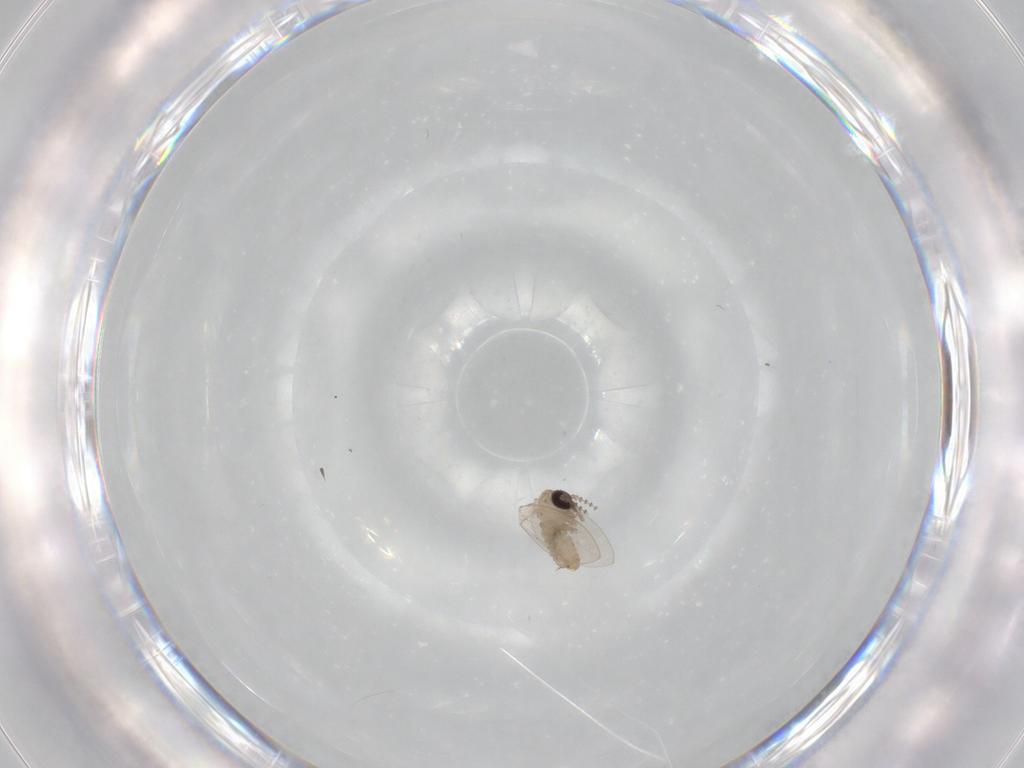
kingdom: Animalia
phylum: Arthropoda
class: Insecta
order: Diptera
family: Psychodidae
